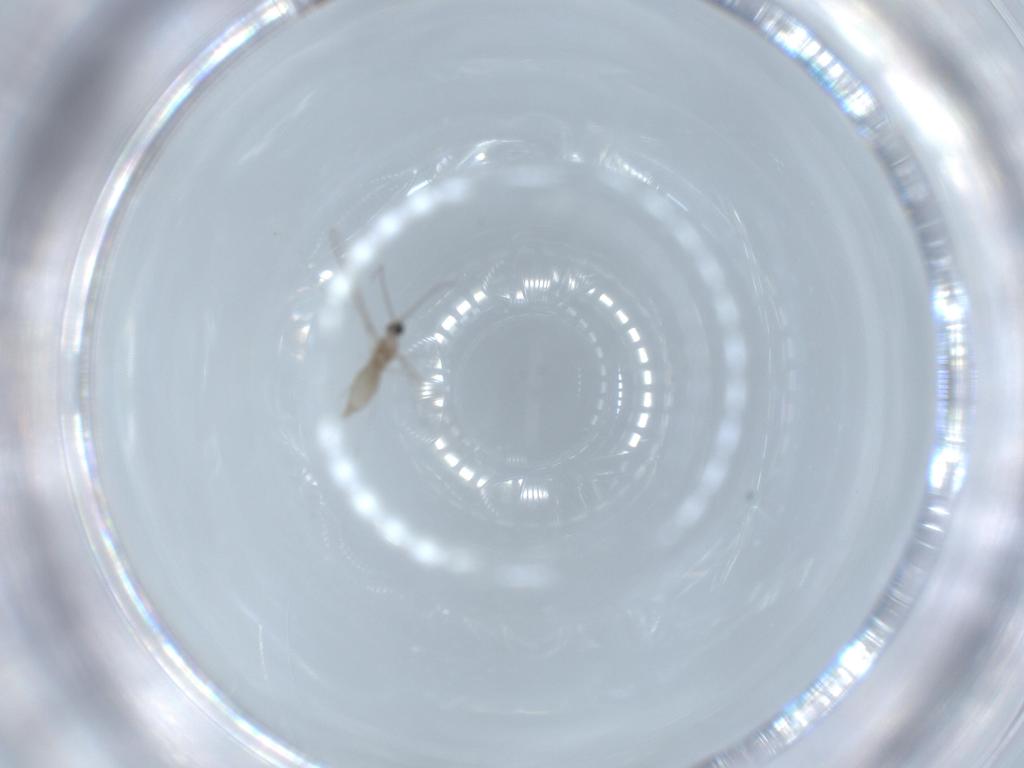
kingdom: Animalia
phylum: Arthropoda
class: Insecta
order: Diptera
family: Cecidomyiidae
